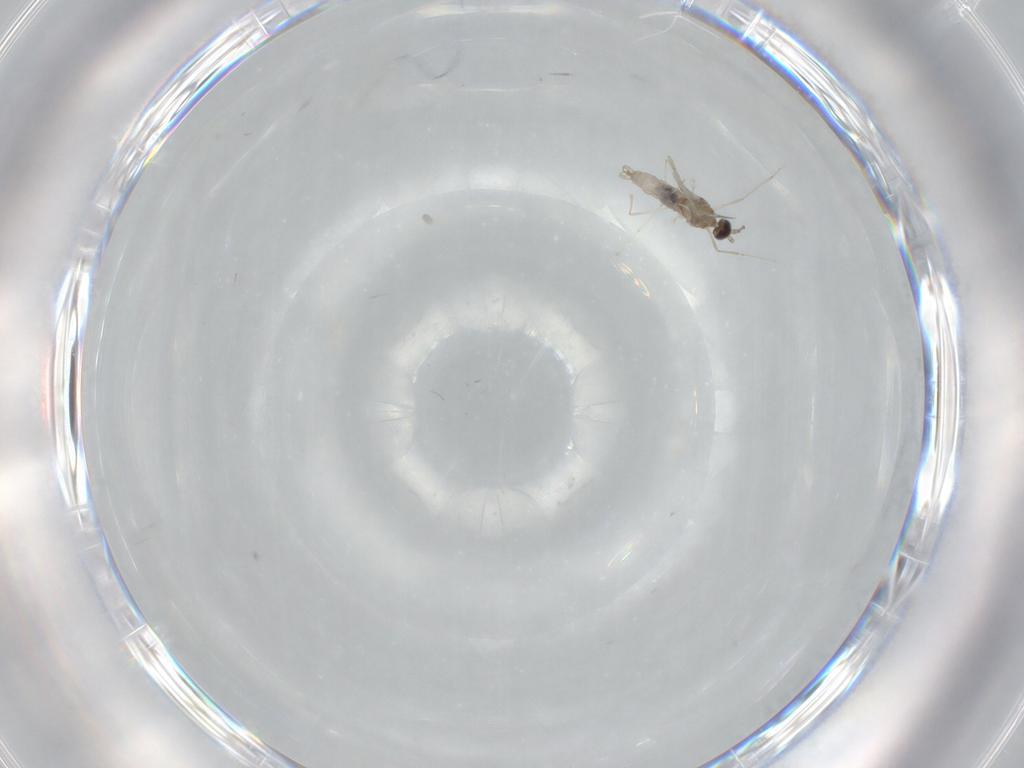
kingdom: Animalia
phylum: Arthropoda
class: Insecta
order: Diptera
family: Cecidomyiidae
